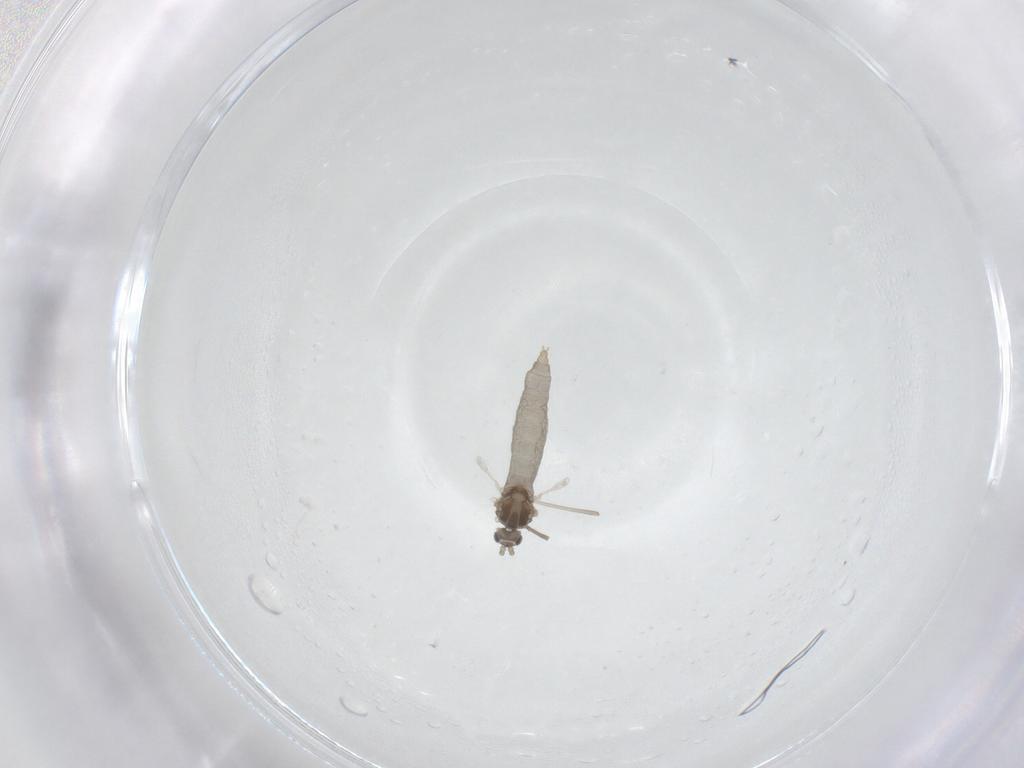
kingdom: Animalia
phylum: Arthropoda
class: Insecta
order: Diptera
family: Cecidomyiidae
